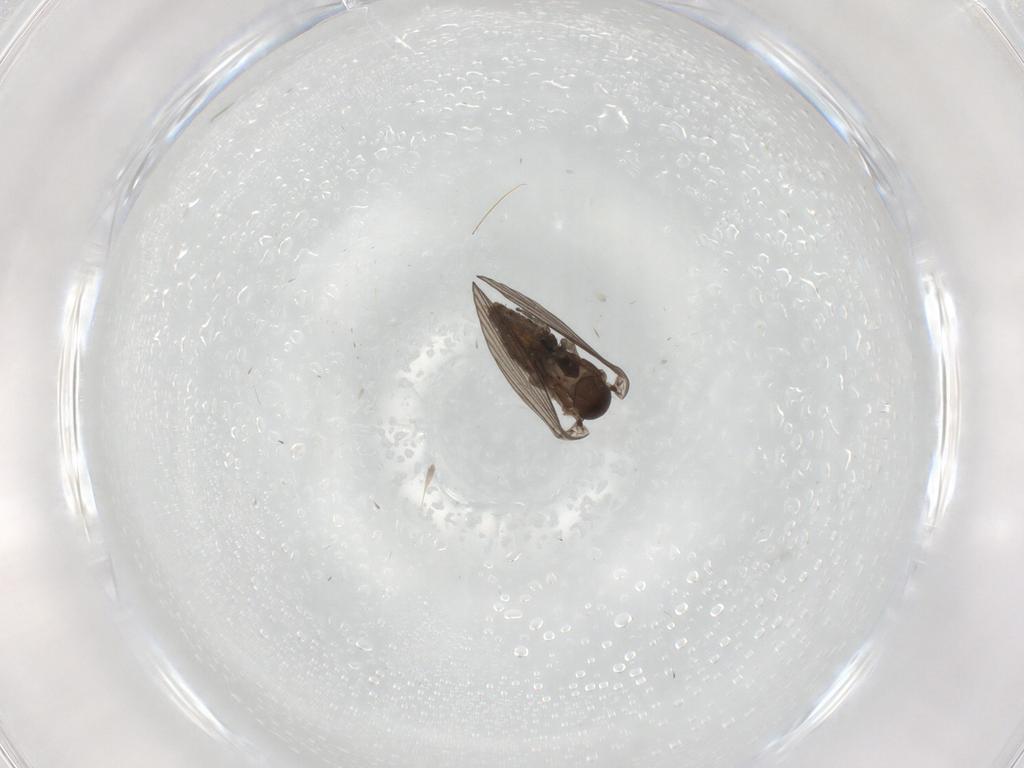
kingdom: Animalia
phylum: Arthropoda
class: Insecta
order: Diptera
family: Psychodidae
